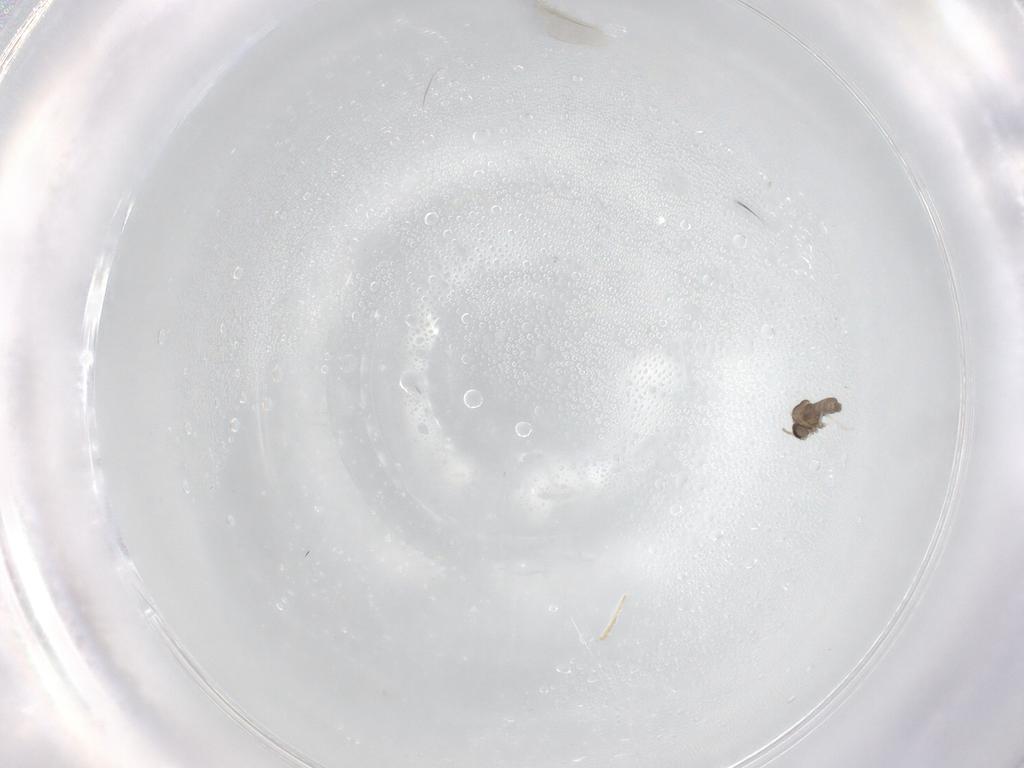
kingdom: Animalia
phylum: Arthropoda
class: Insecta
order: Diptera
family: Cecidomyiidae
